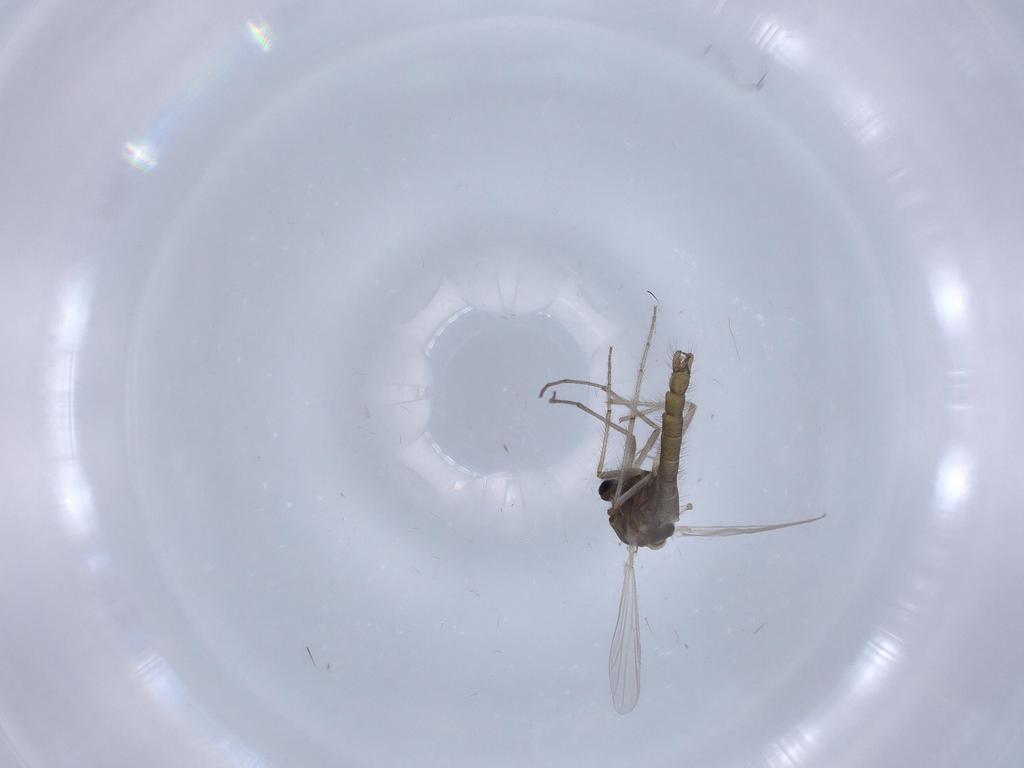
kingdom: Animalia
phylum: Arthropoda
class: Insecta
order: Diptera
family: Chironomidae
